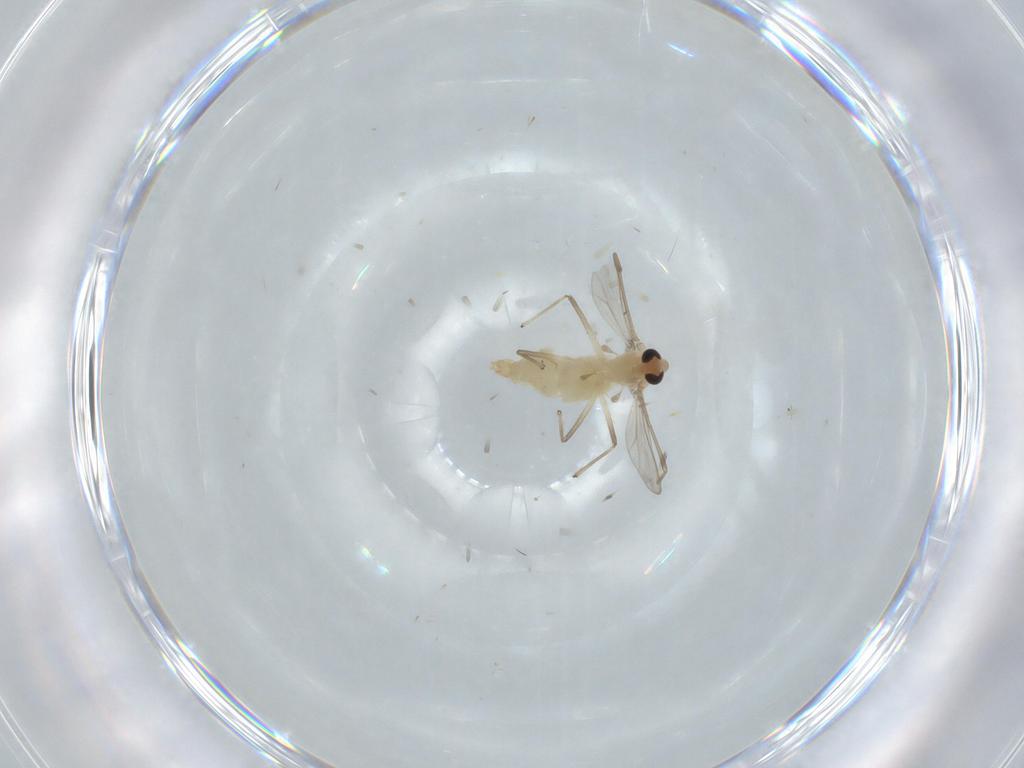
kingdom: Animalia
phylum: Arthropoda
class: Insecta
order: Diptera
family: Chironomidae
